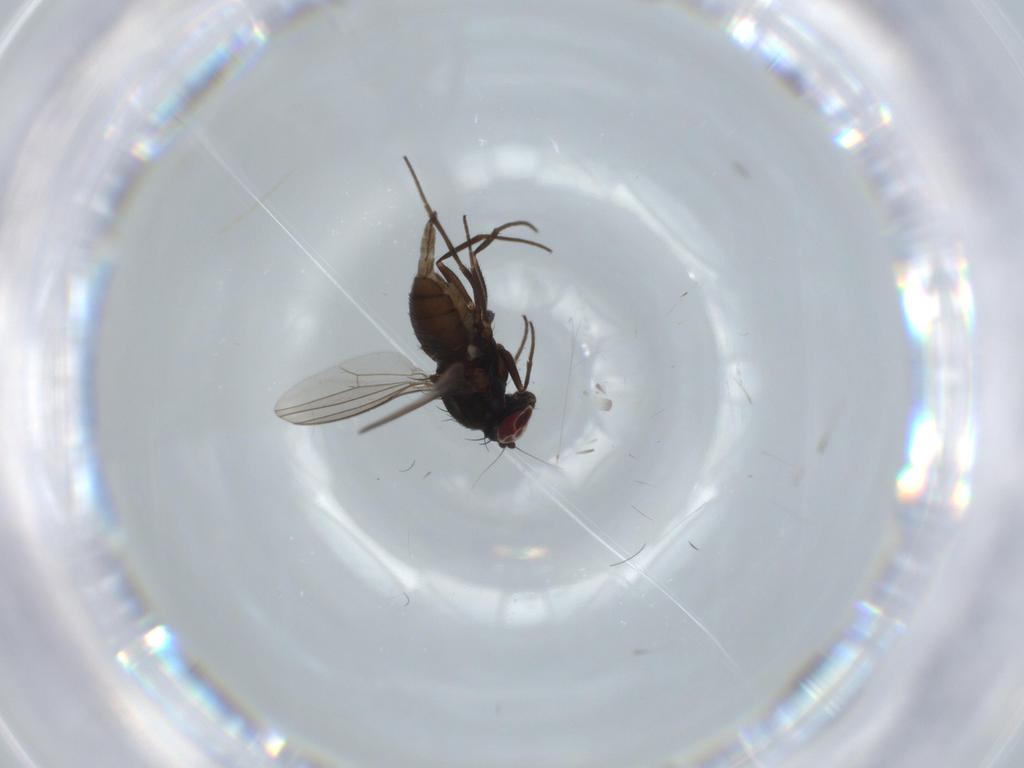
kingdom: Animalia
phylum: Arthropoda
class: Insecta
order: Diptera
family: Dolichopodidae
